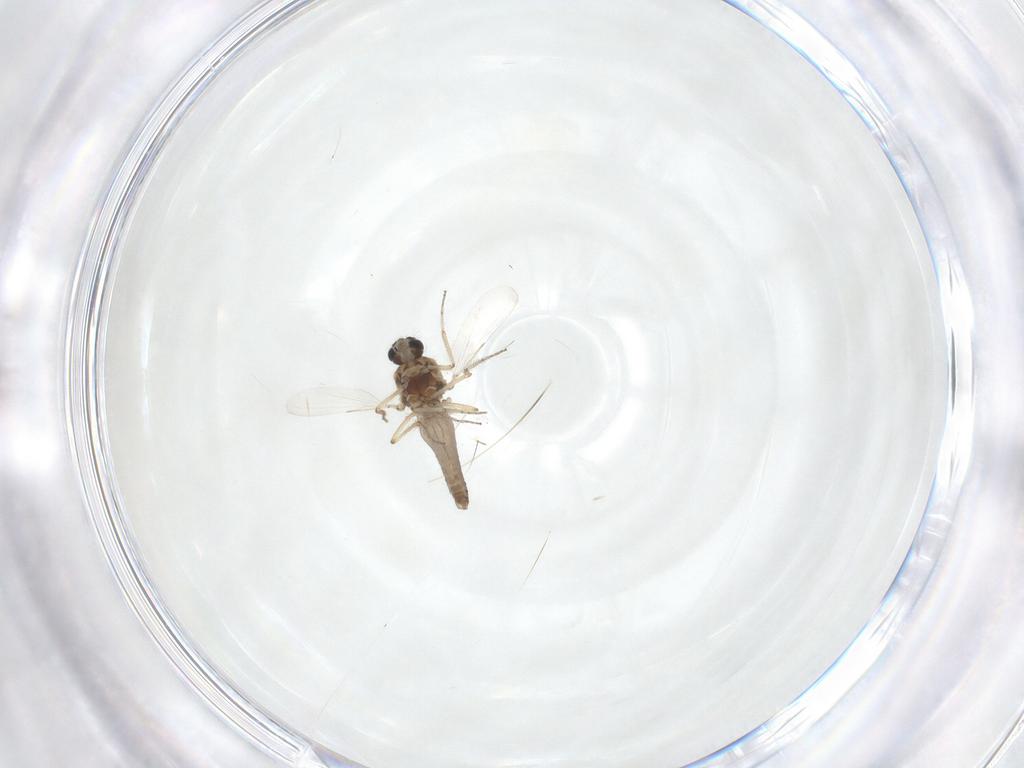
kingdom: Animalia
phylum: Arthropoda
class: Insecta
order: Diptera
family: Ceratopogonidae
